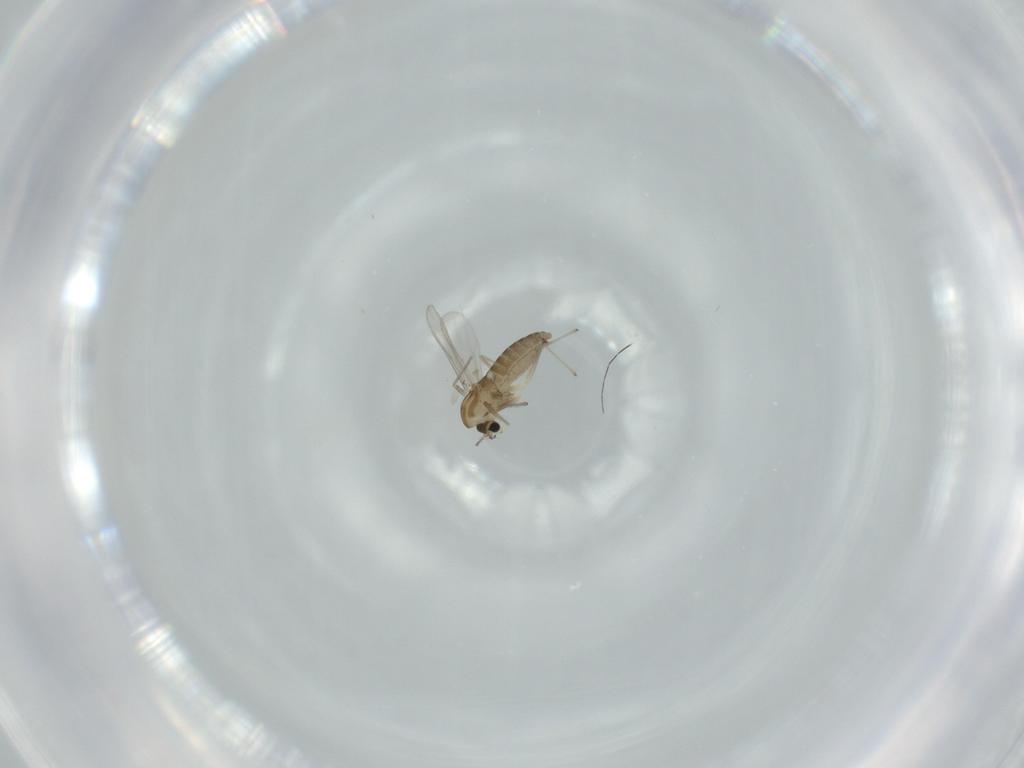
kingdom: Animalia
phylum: Arthropoda
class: Insecta
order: Diptera
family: Chironomidae
